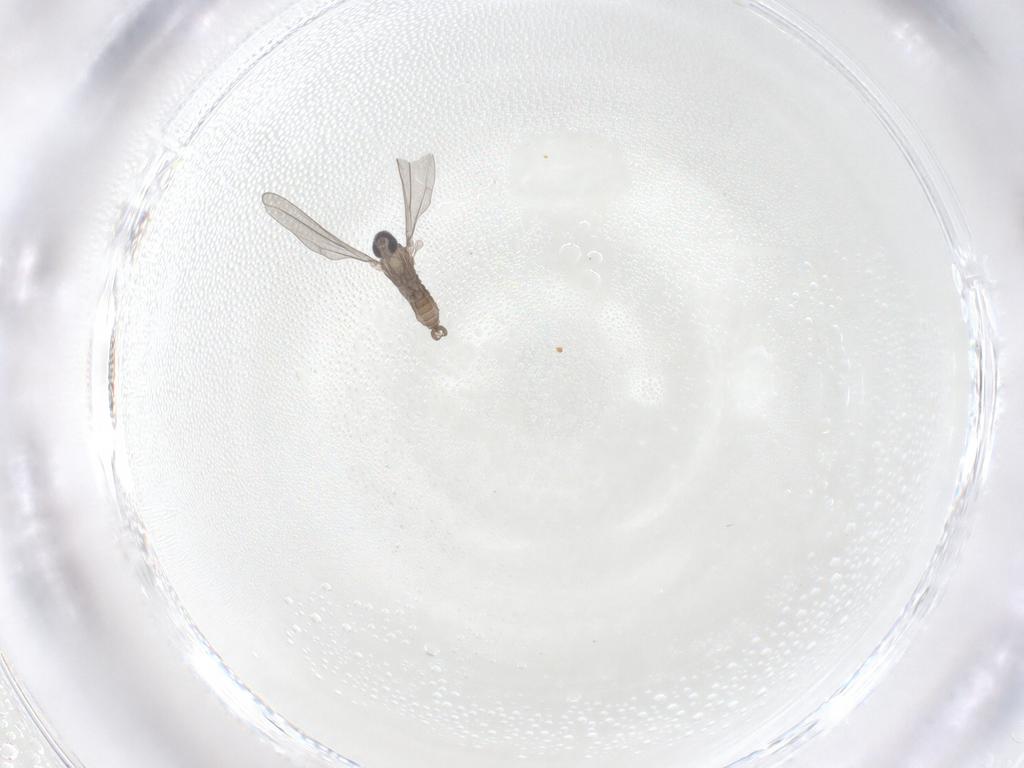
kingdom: Animalia
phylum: Arthropoda
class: Insecta
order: Diptera
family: Cecidomyiidae
